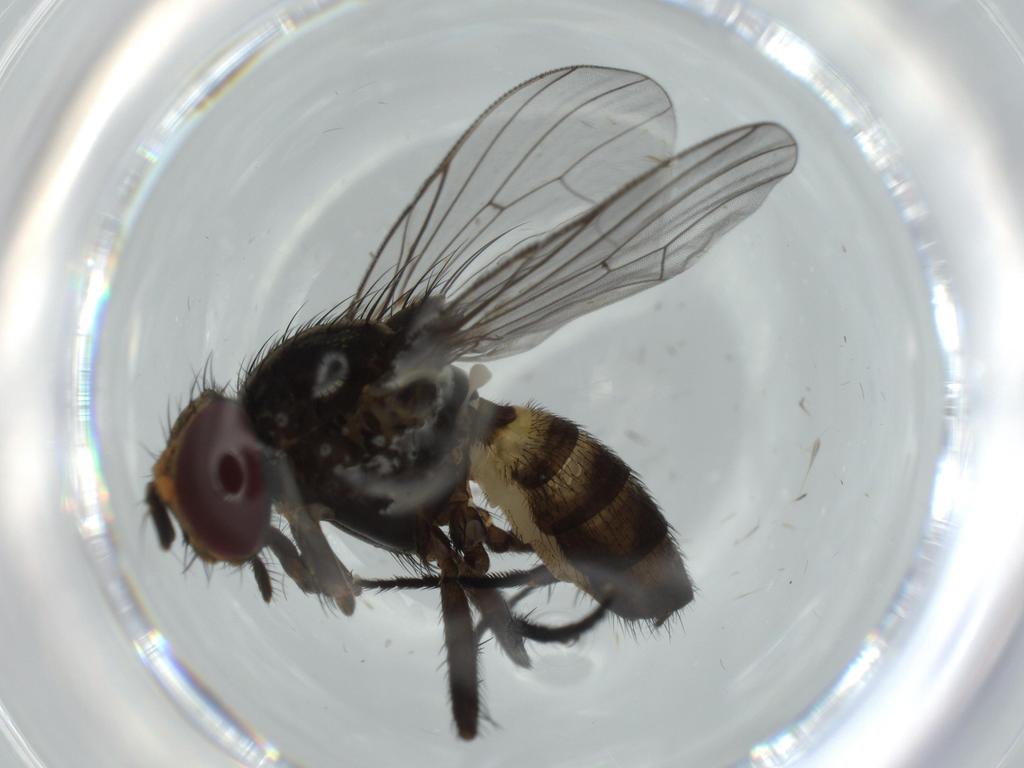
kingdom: Animalia
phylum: Arthropoda
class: Insecta
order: Diptera
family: Fannia
